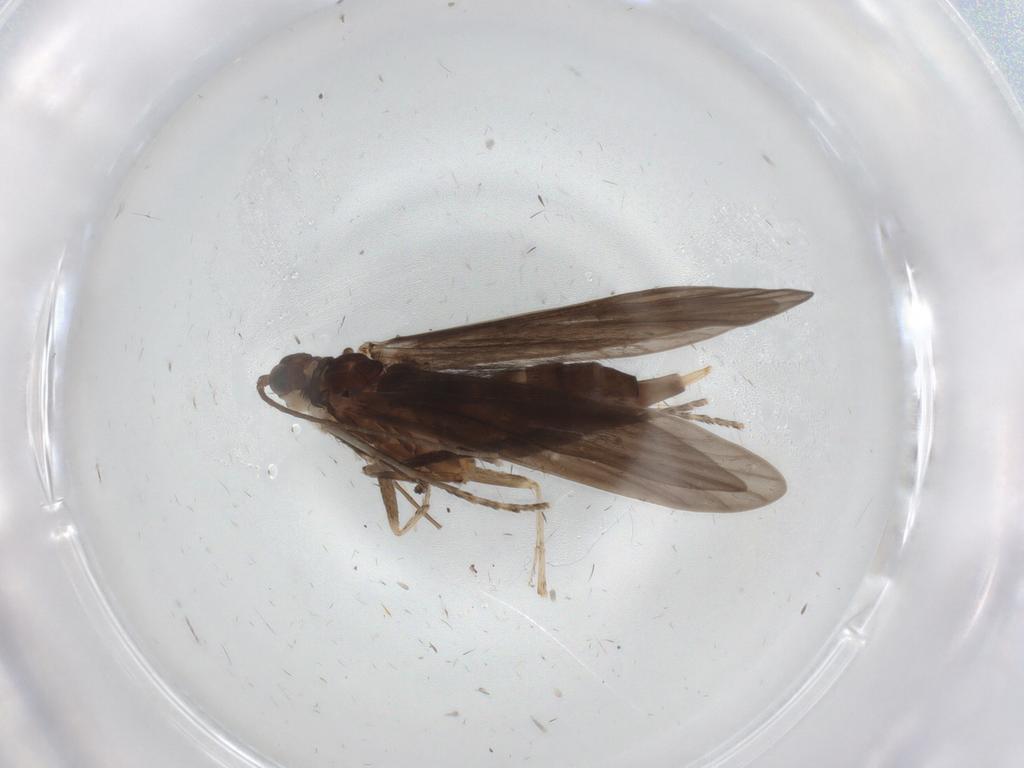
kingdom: Animalia
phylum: Arthropoda
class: Insecta
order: Trichoptera
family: Xiphocentronidae
